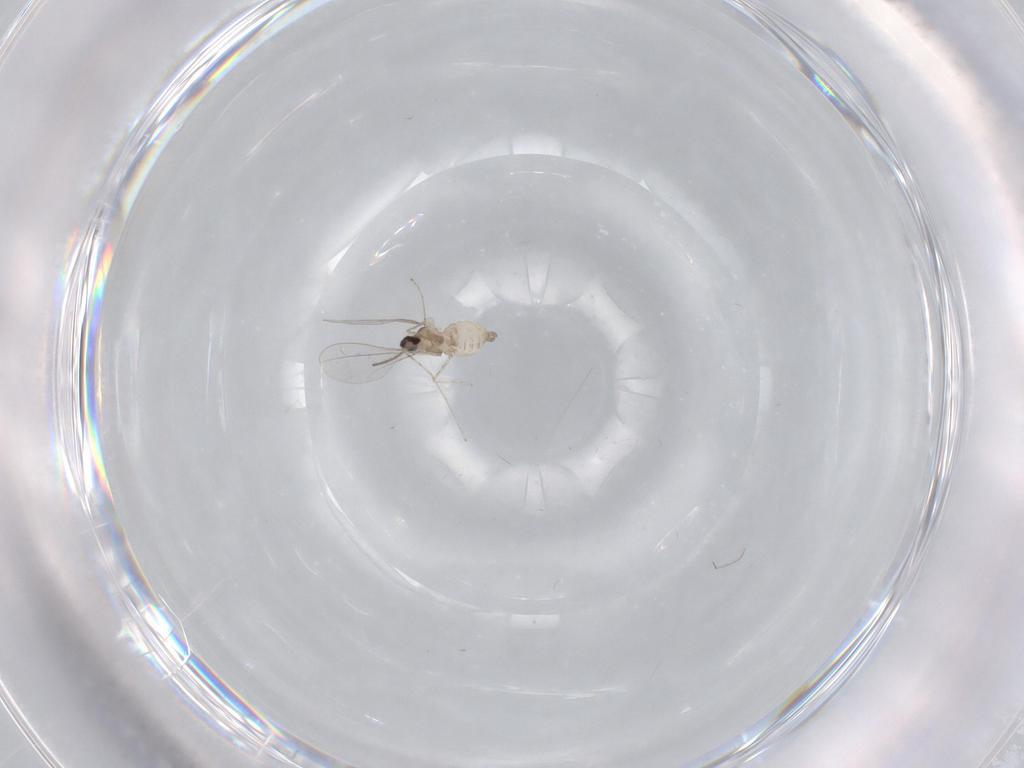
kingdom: Animalia
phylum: Arthropoda
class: Insecta
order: Diptera
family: Cecidomyiidae
